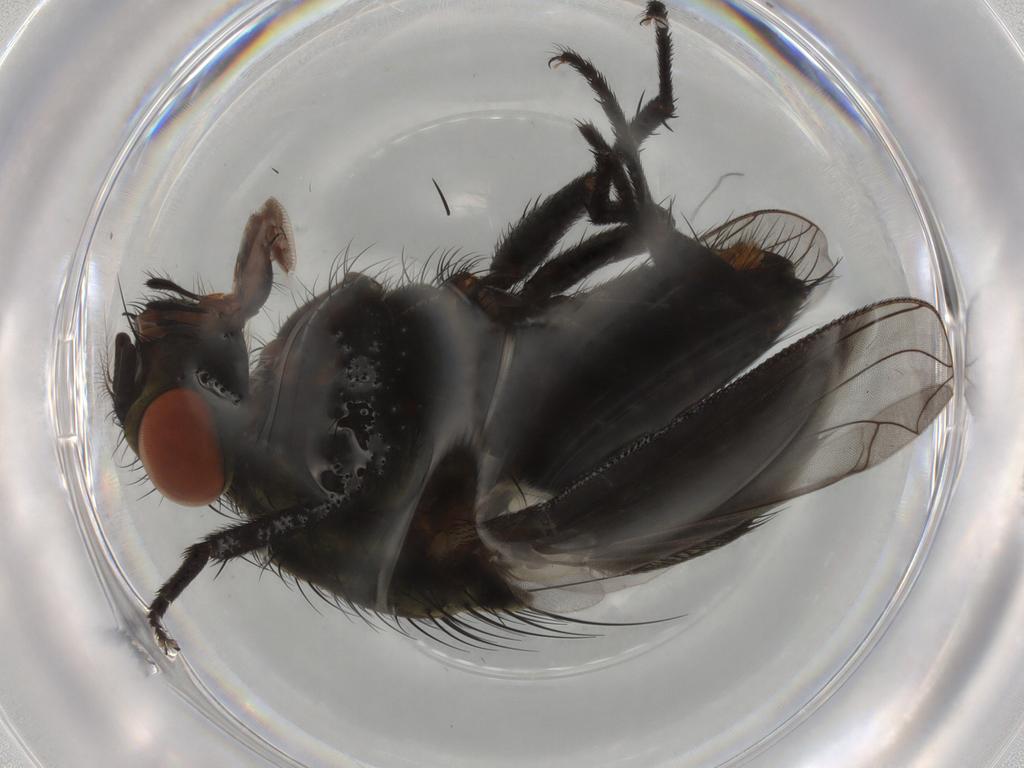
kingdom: Animalia
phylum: Arthropoda
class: Insecta
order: Diptera
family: Sarcophagidae
